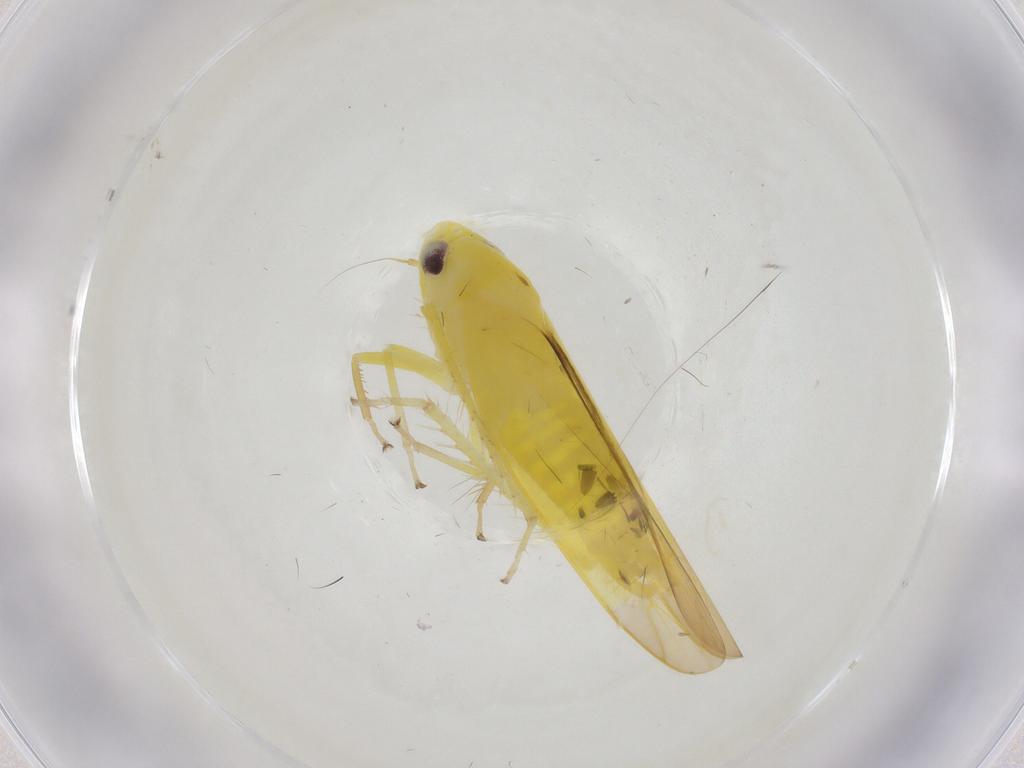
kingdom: Animalia
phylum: Arthropoda
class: Insecta
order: Hemiptera
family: Cicadellidae
